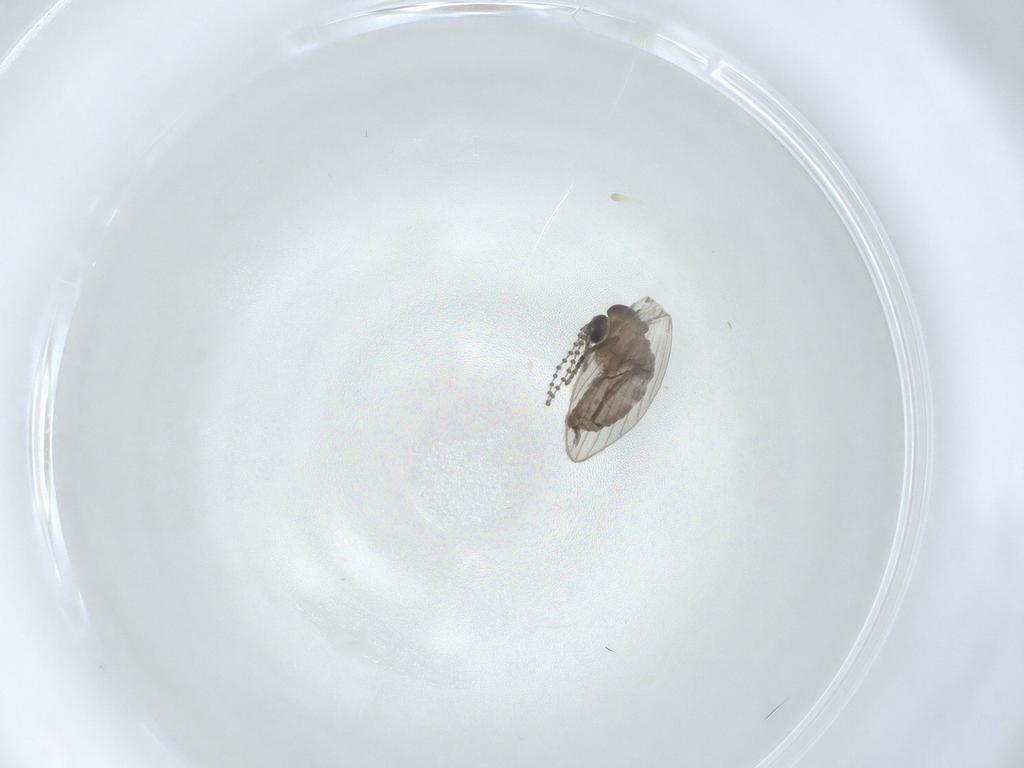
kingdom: Animalia
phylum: Arthropoda
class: Insecta
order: Diptera
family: Psychodidae
